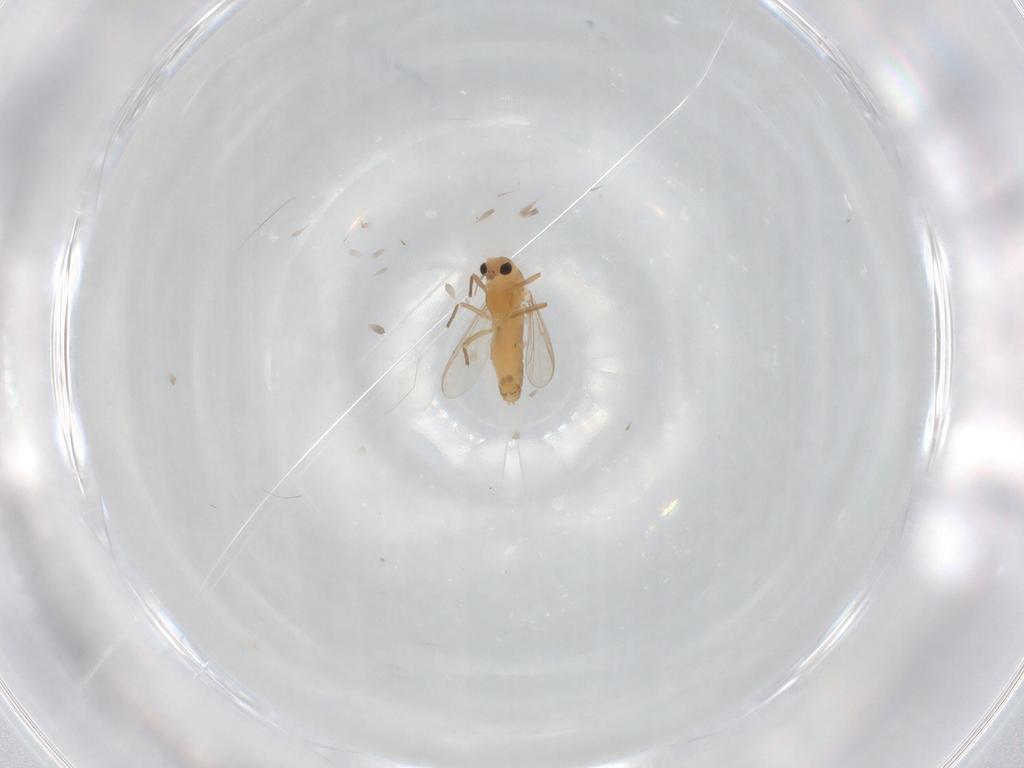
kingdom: Animalia
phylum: Arthropoda
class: Insecta
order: Diptera
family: Chironomidae
